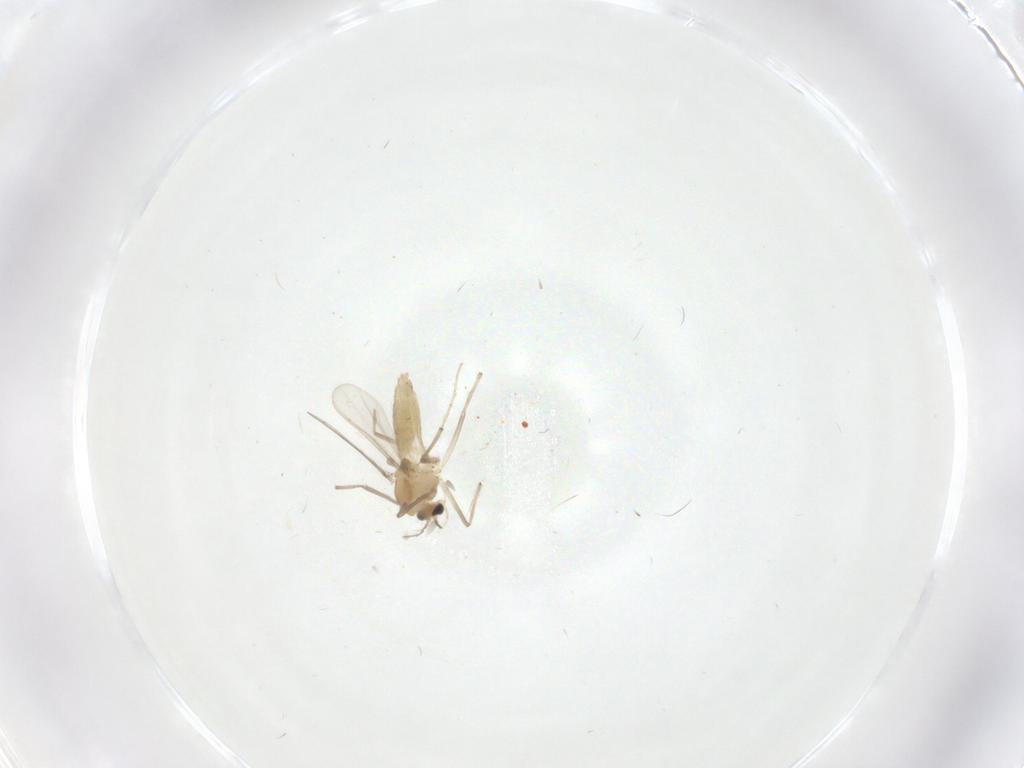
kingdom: Animalia
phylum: Arthropoda
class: Insecta
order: Diptera
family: Chironomidae
